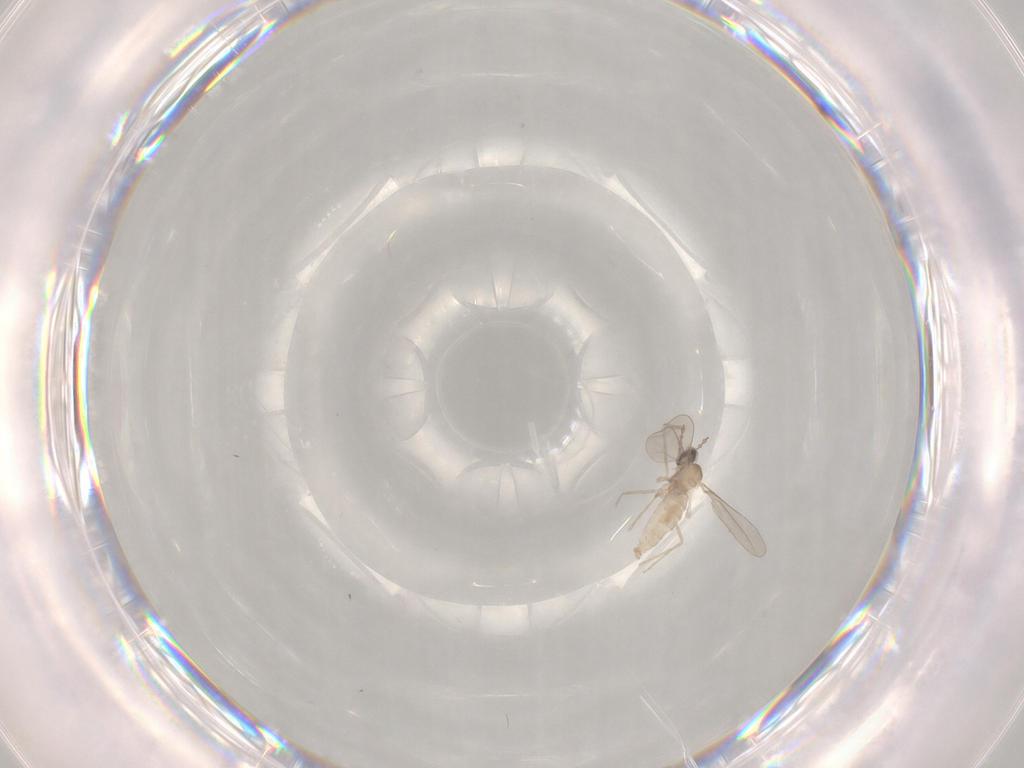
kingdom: Animalia
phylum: Arthropoda
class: Insecta
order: Diptera
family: Cecidomyiidae
